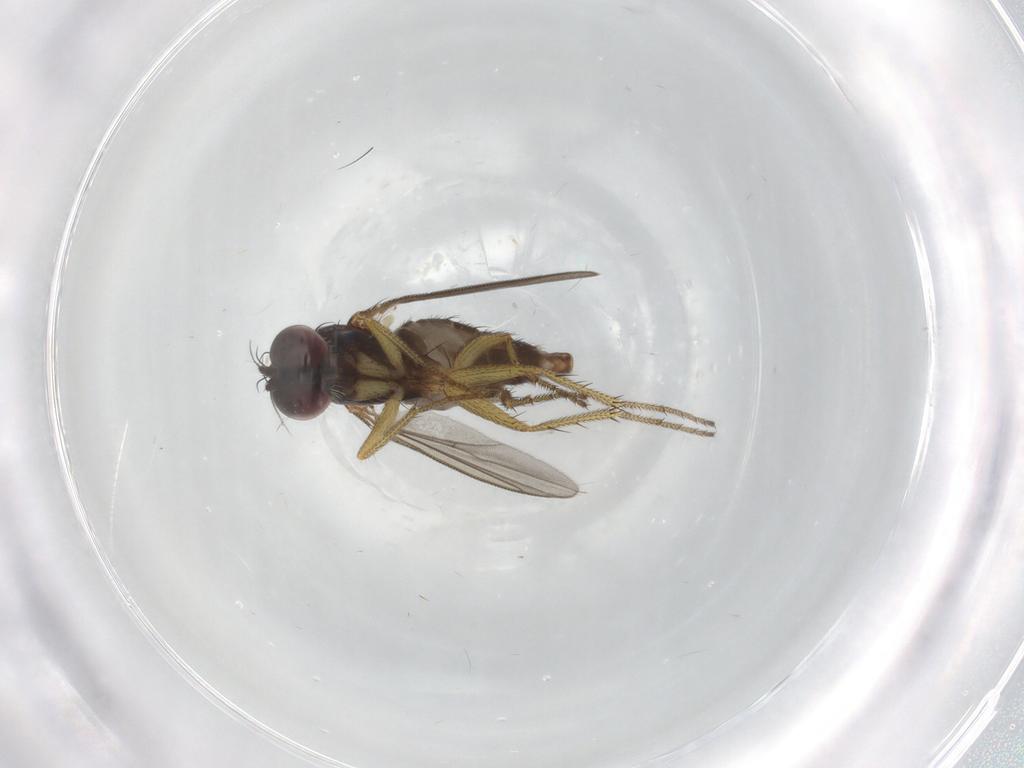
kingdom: Animalia
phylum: Arthropoda
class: Insecta
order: Diptera
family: Dolichopodidae
